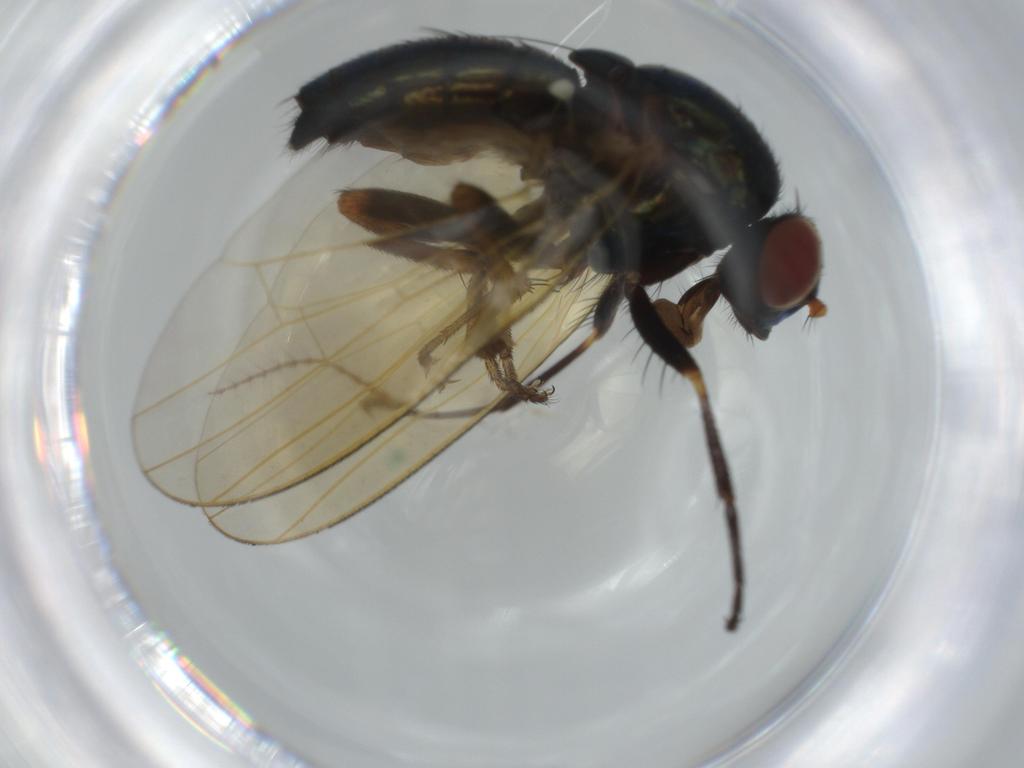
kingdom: Animalia
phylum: Arthropoda
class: Insecta
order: Diptera
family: Lauxaniidae
